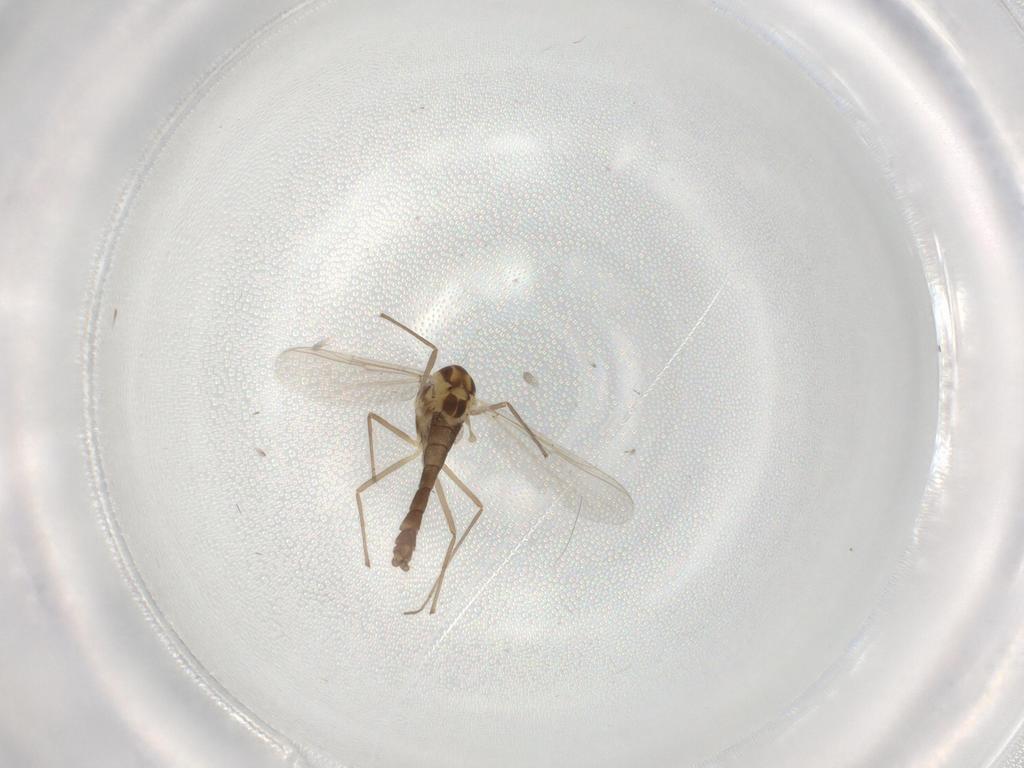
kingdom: Animalia
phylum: Arthropoda
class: Insecta
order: Diptera
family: Chironomidae
